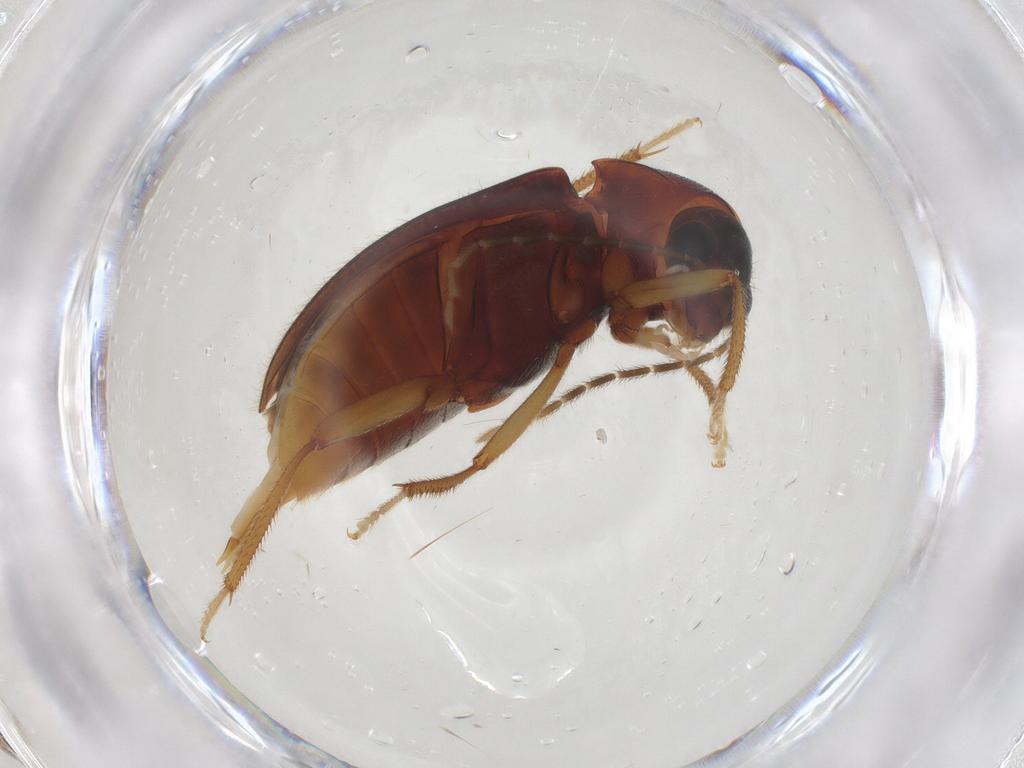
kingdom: Animalia
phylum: Arthropoda
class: Insecta
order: Coleoptera
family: Ptilodactylidae
